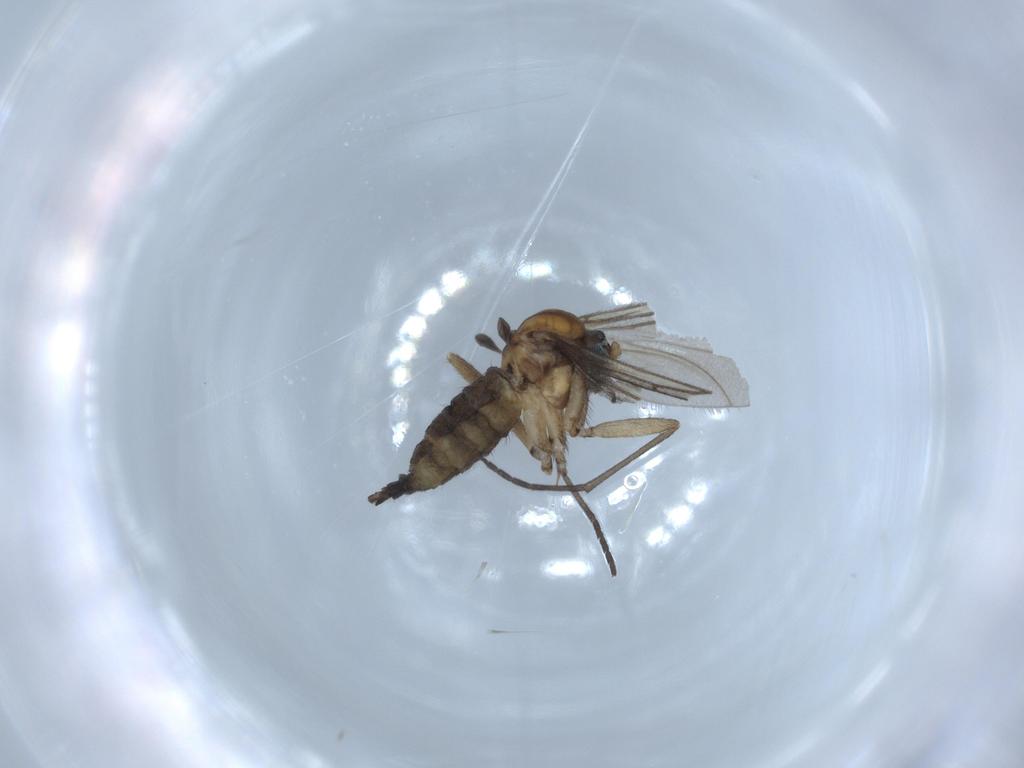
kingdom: Animalia
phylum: Arthropoda
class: Insecta
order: Diptera
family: Sciaridae
